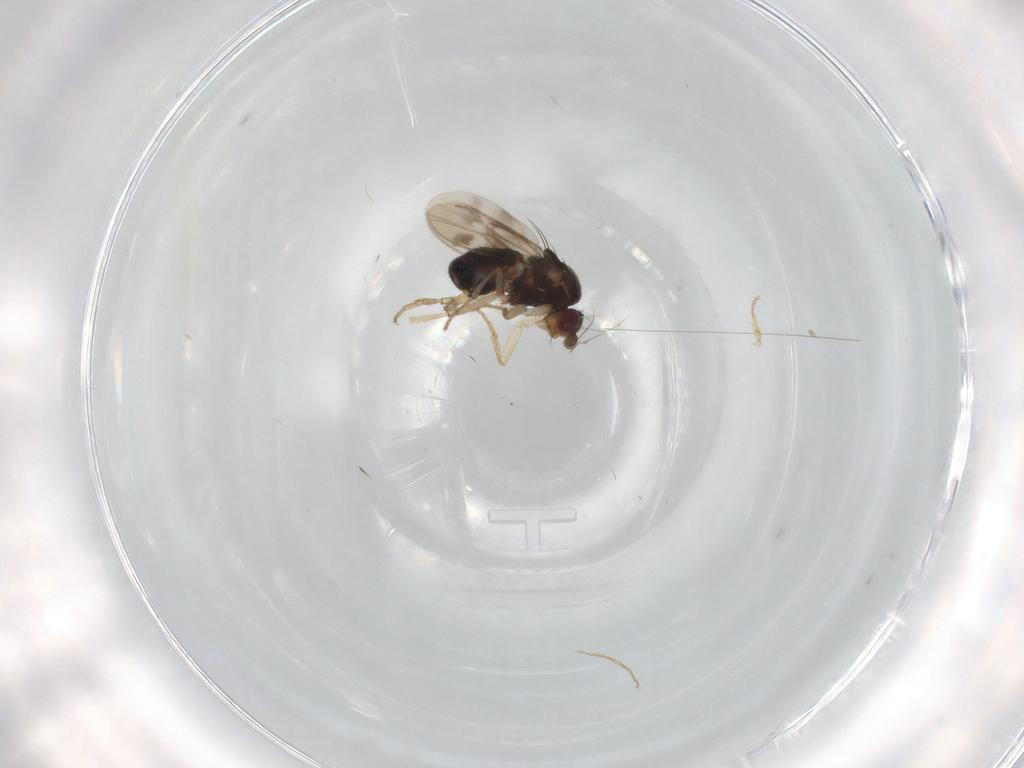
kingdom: Animalia
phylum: Arthropoda
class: Insecta
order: Diptera
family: Sphaeroceridae
